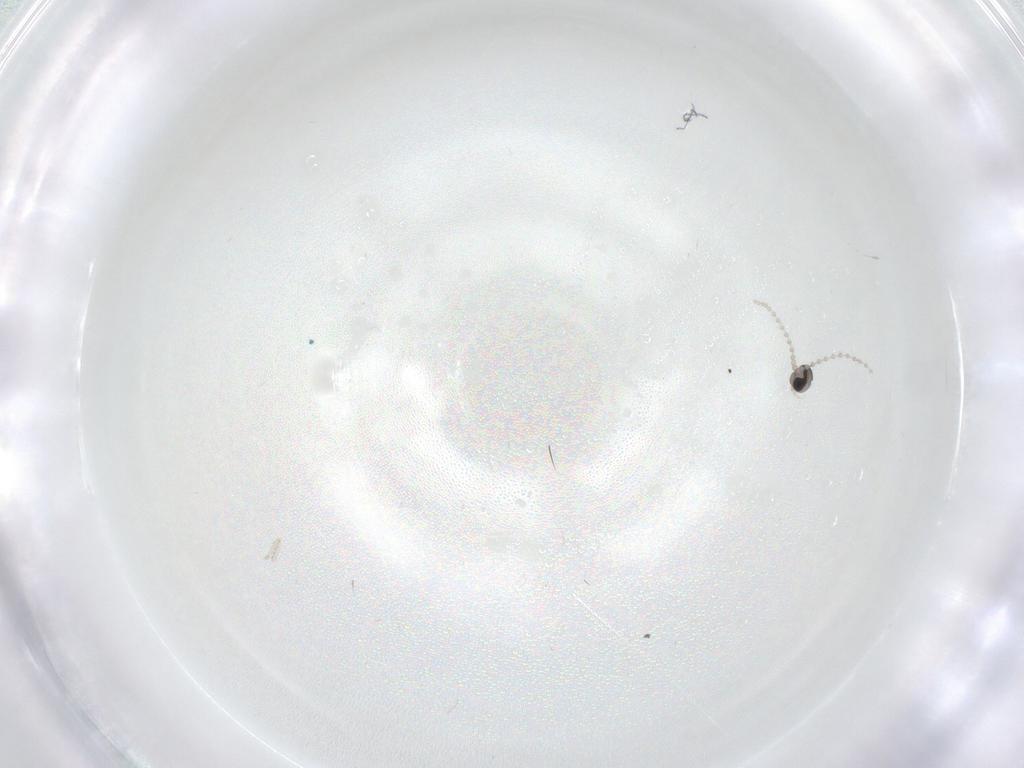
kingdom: Animalia
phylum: Arthropoda
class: Insecta
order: Diptera
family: Cecidomyiidae
